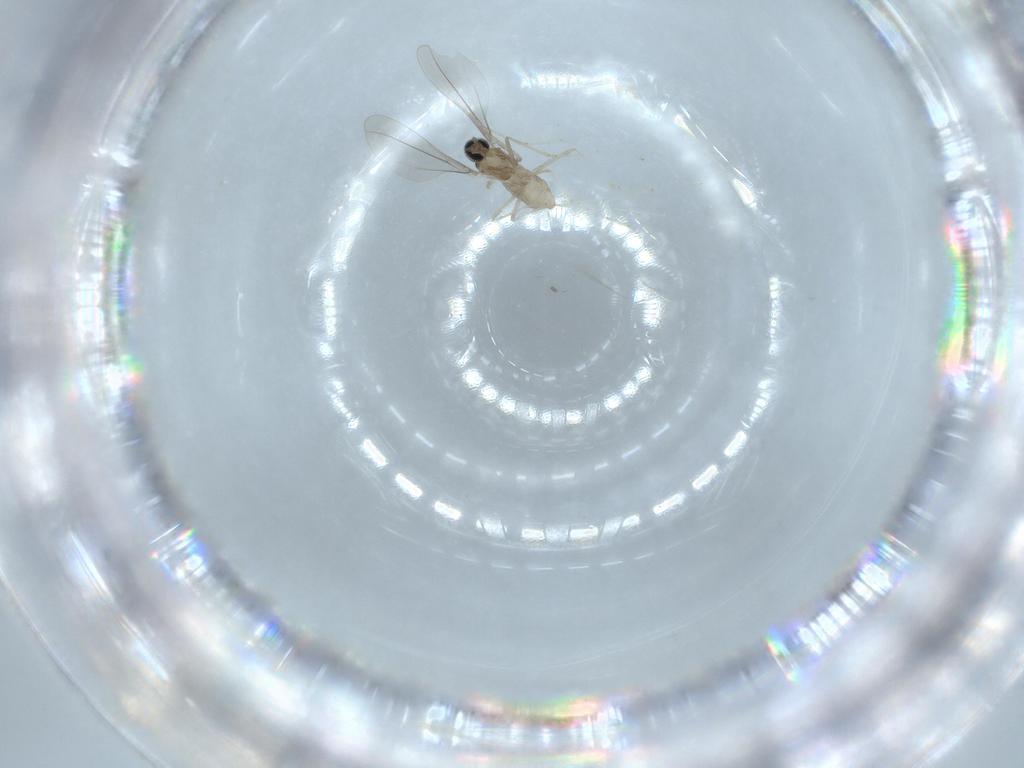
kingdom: Animalia
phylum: Arthropoda
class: Insecta
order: Diptera
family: Cecidomyiidae
